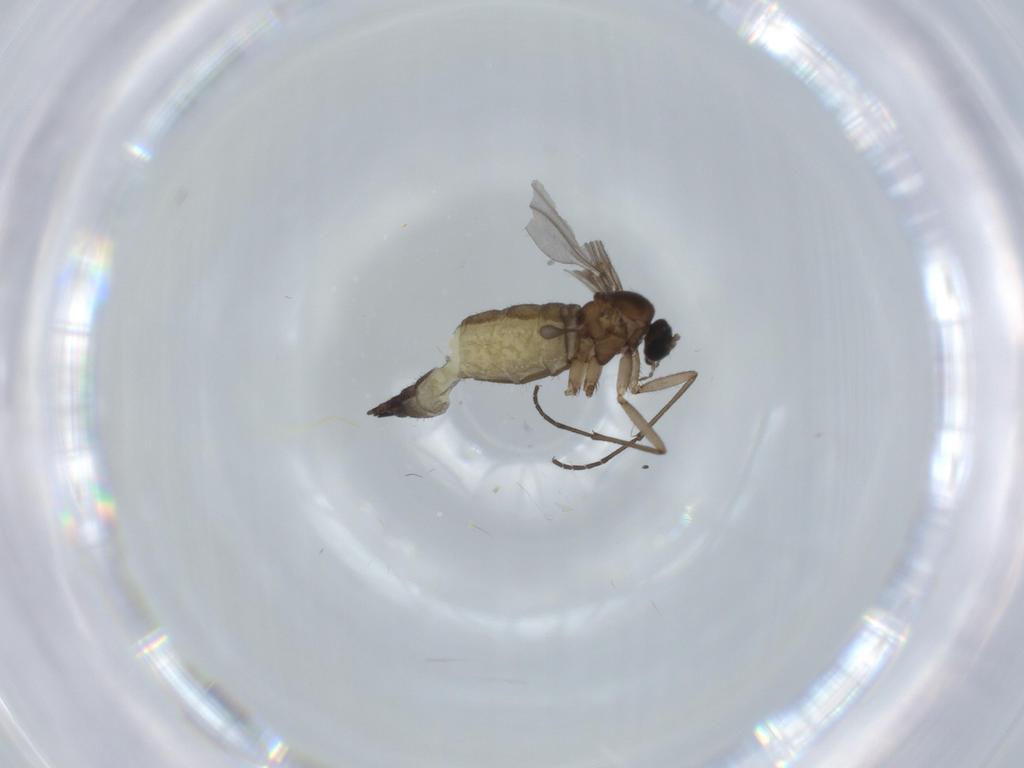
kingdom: Animalia
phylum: Arthropoda
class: Insecta
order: Diptera
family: Sciaridae
